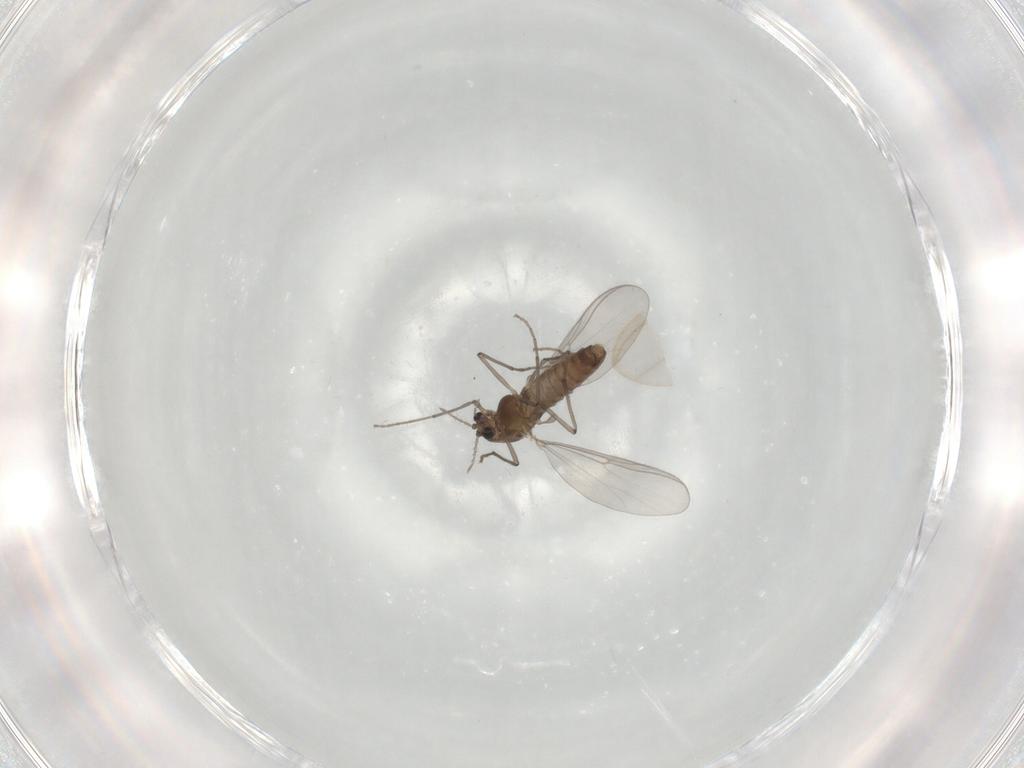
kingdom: Animalia
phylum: Arthropoda
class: Insecta
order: Diptera
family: Chironomidae
